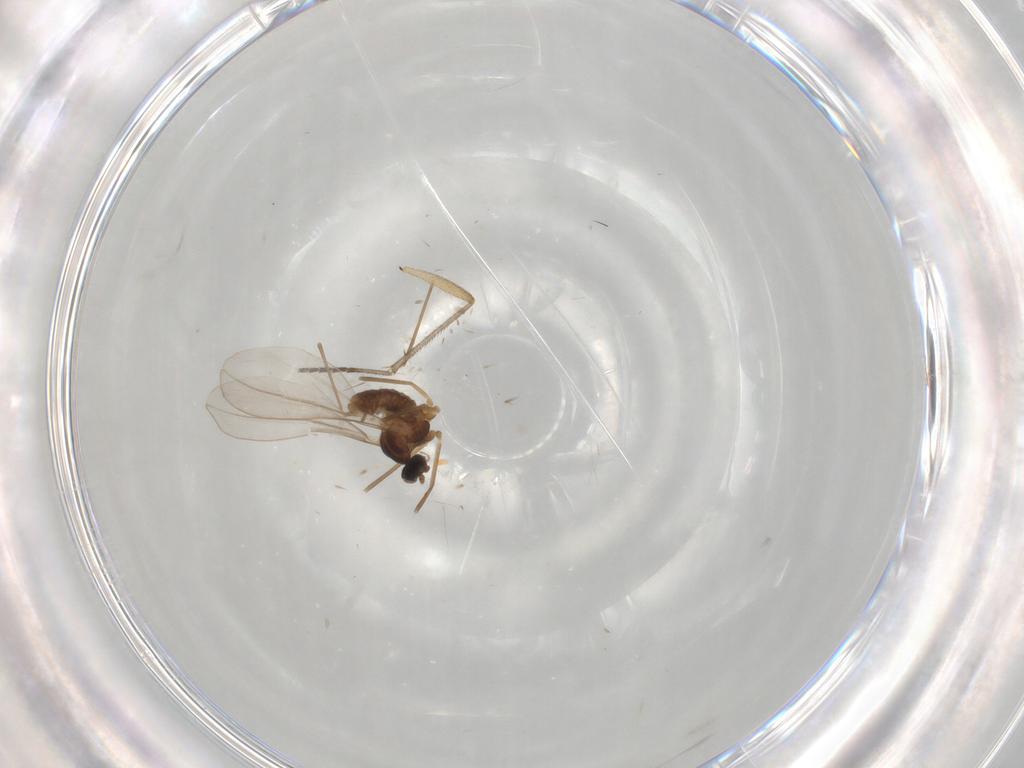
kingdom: Animalia
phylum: Arthropoda
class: Insecta
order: Diptera
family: Cecidomyiidae
